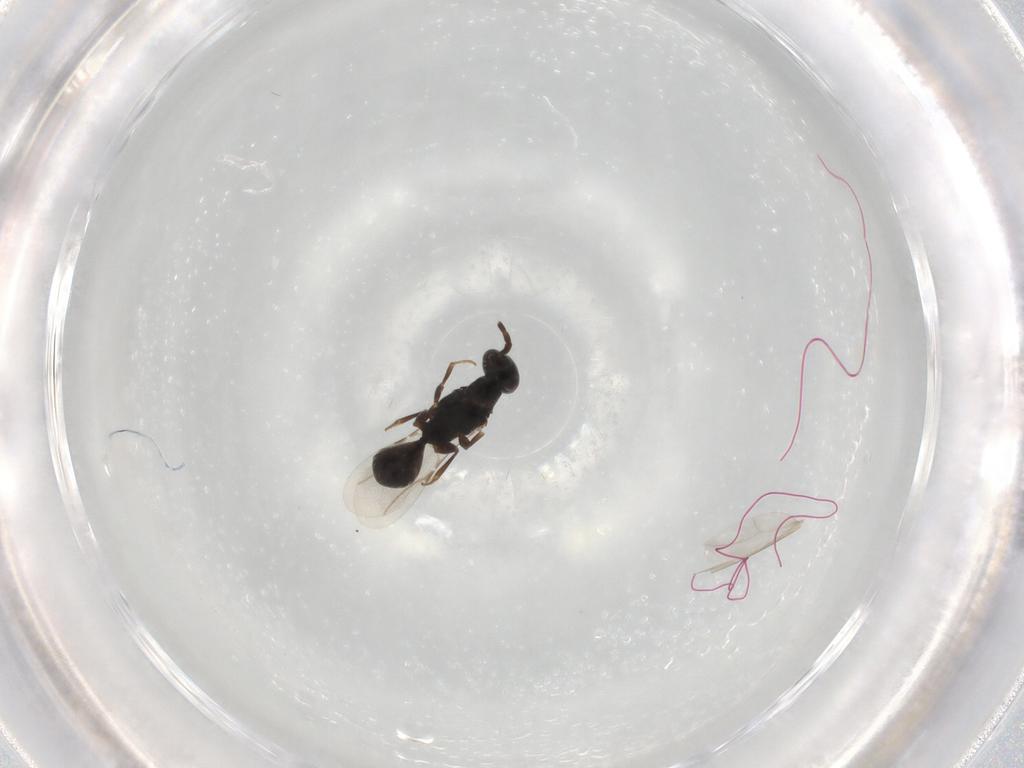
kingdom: Animalia
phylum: Arthropoda
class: Insecta
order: Hymenoptera
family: Bethylidae
